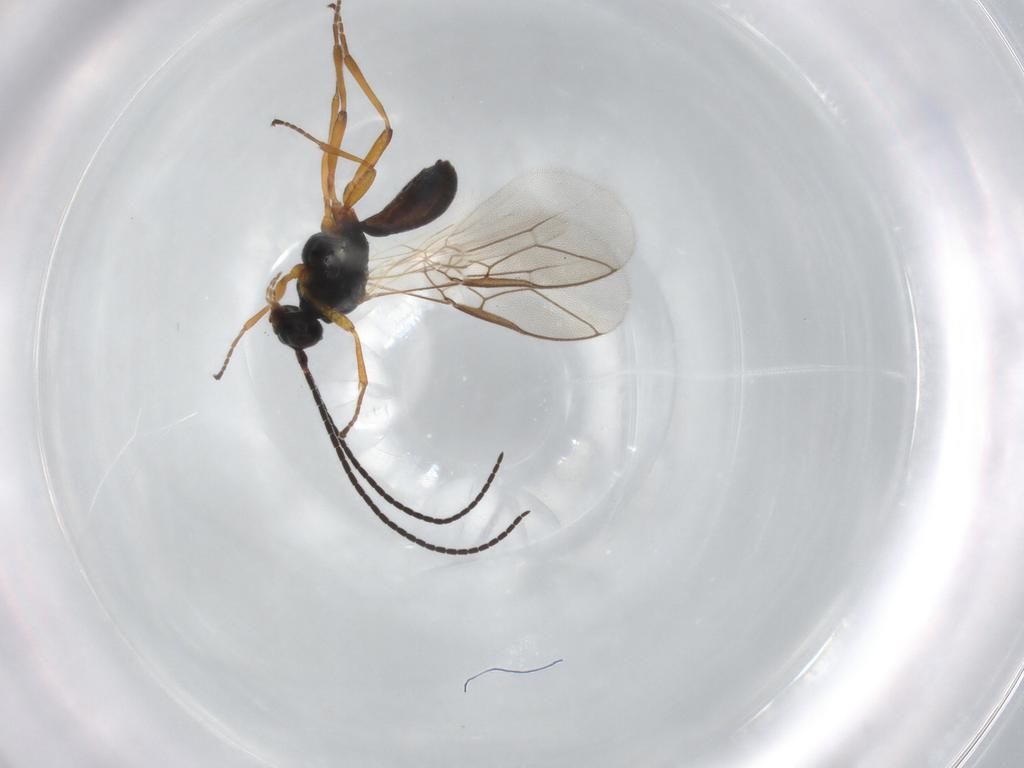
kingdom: Animalia
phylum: Arthropoda
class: Insecta
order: Hymenoptera
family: Braconidae
